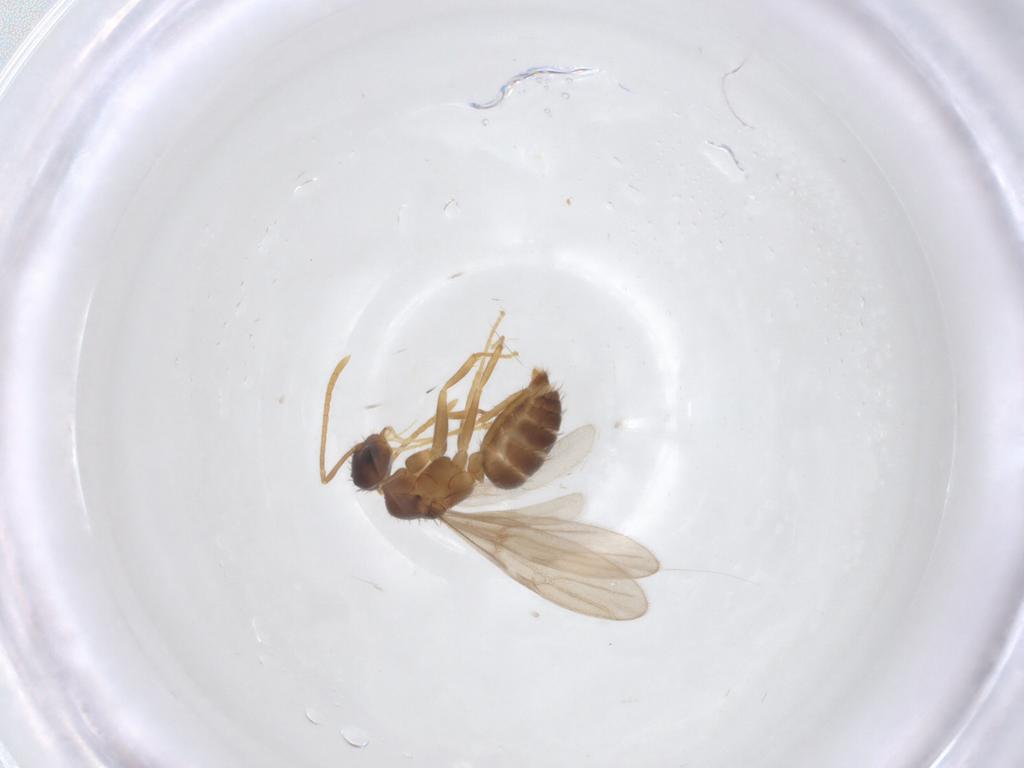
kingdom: Animalia
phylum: Arthropoda
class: Insecta
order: Hymenoptera
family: Formicidae
